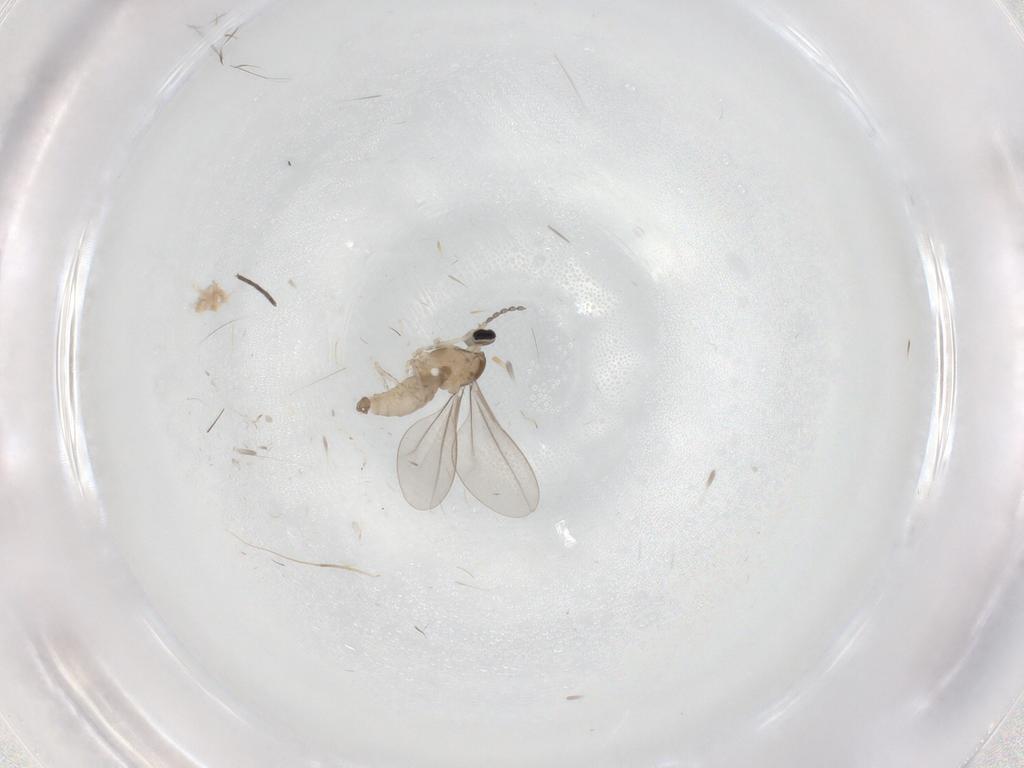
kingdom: Animalia
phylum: Arthropoda
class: Insecta
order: Diptera
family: Cecidomyiidae
